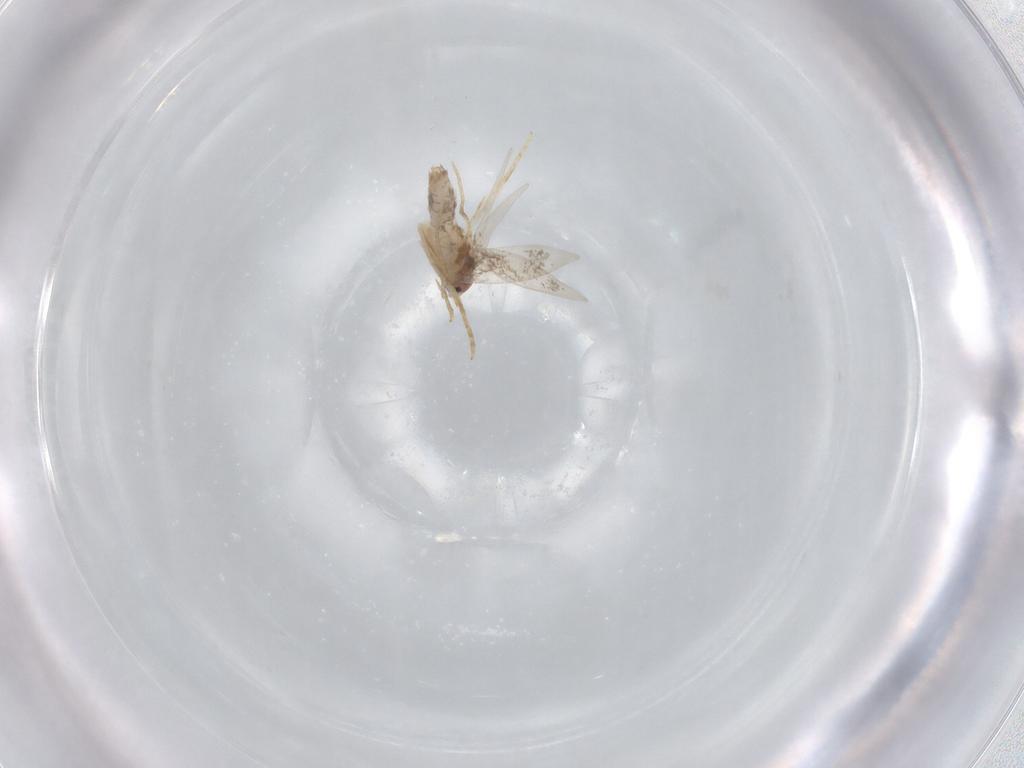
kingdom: Animalia
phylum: Arthropoda
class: Insecta
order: Lepidoptera
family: Nepticulidae
